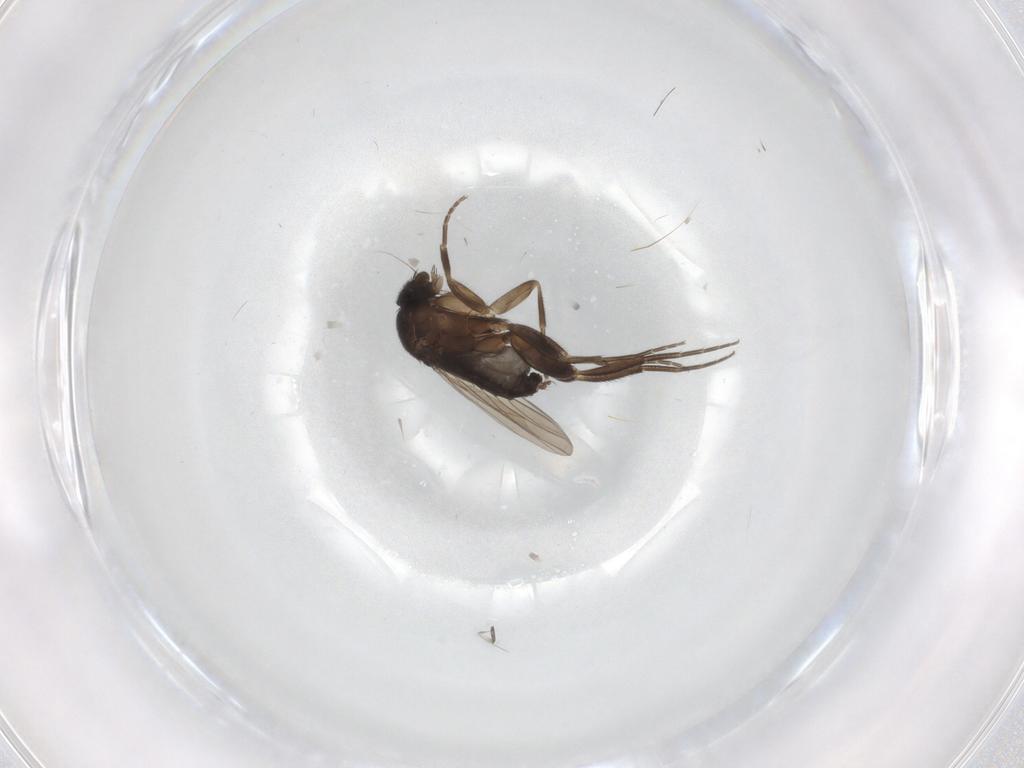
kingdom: Animalia
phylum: Arthropoda
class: Insecta
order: Diptera
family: Phoridae
